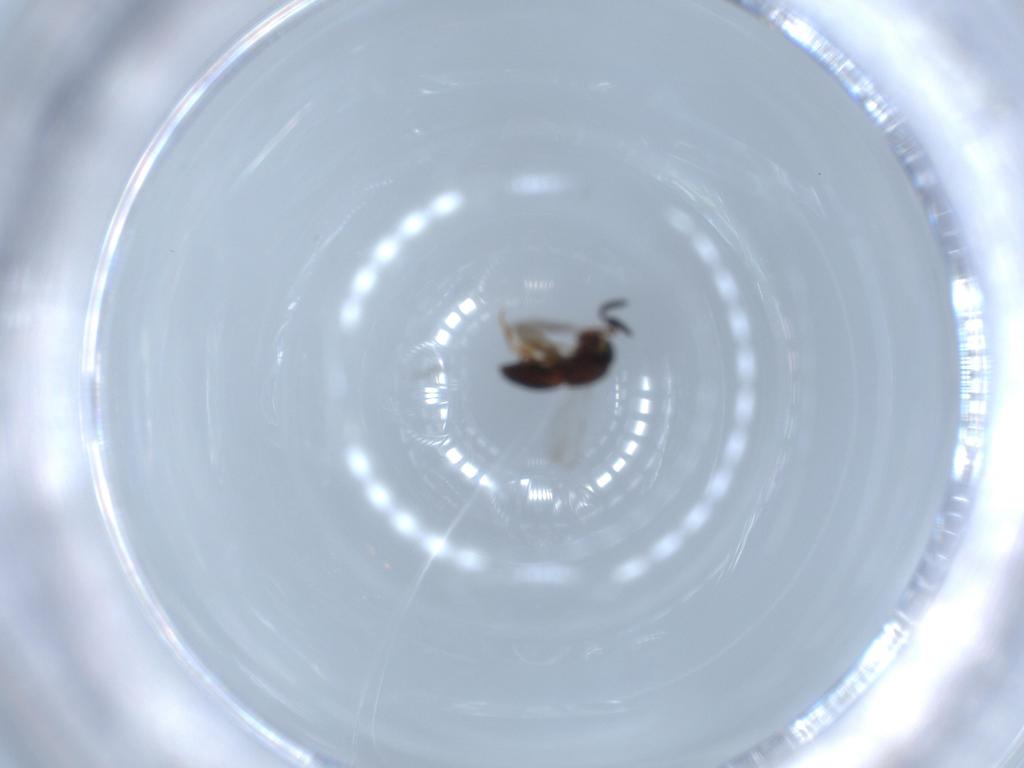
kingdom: Animalia
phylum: Arthropoda
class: Insecta
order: Hymenoptera
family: Scelionidae
